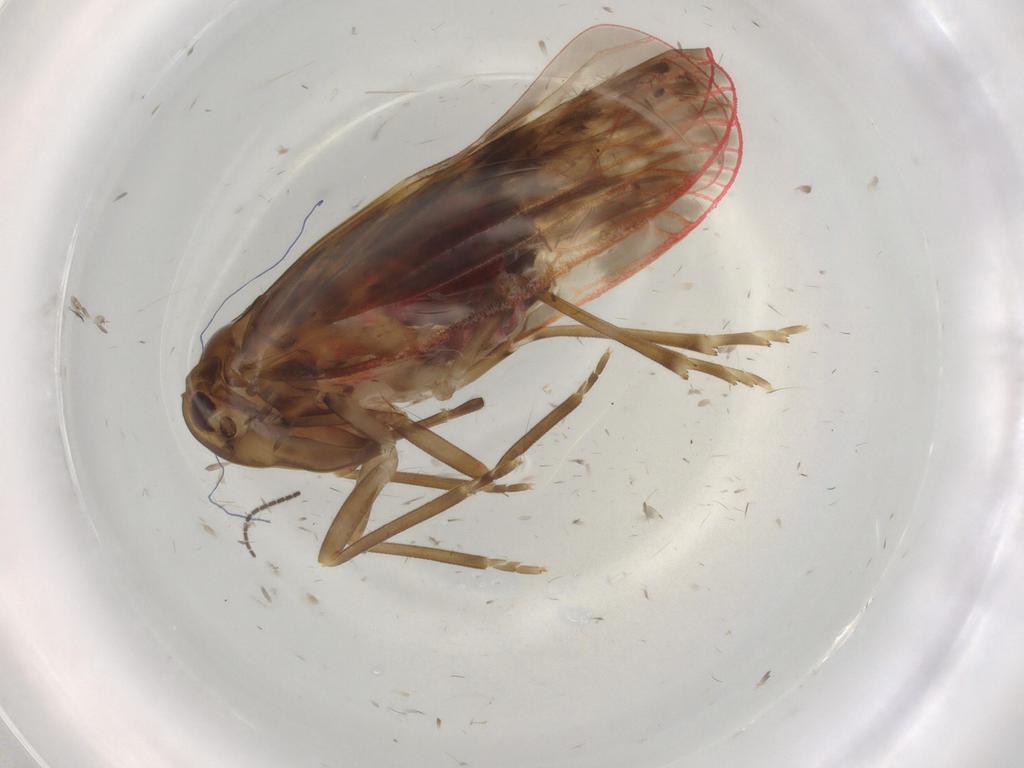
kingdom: Animalia
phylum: Arthropoda
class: Insecta
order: Hemiptera
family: Achilidae
